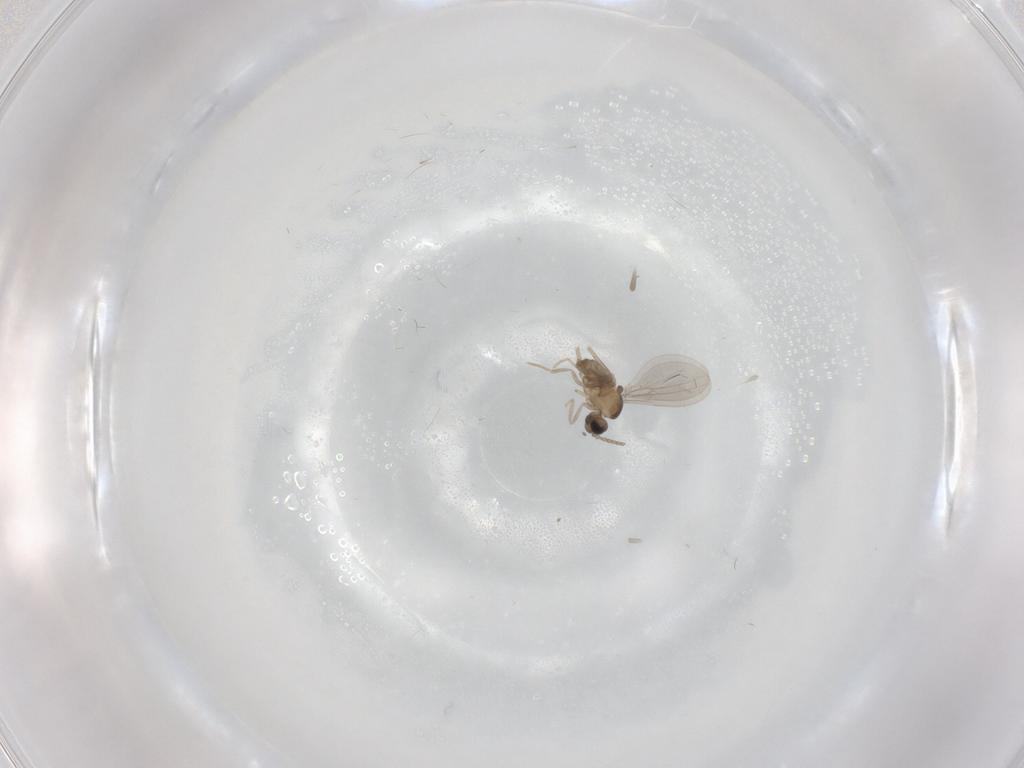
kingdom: Animalia
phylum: Arthropoda
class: Insecta
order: Diptera
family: Cecidomyiidae
